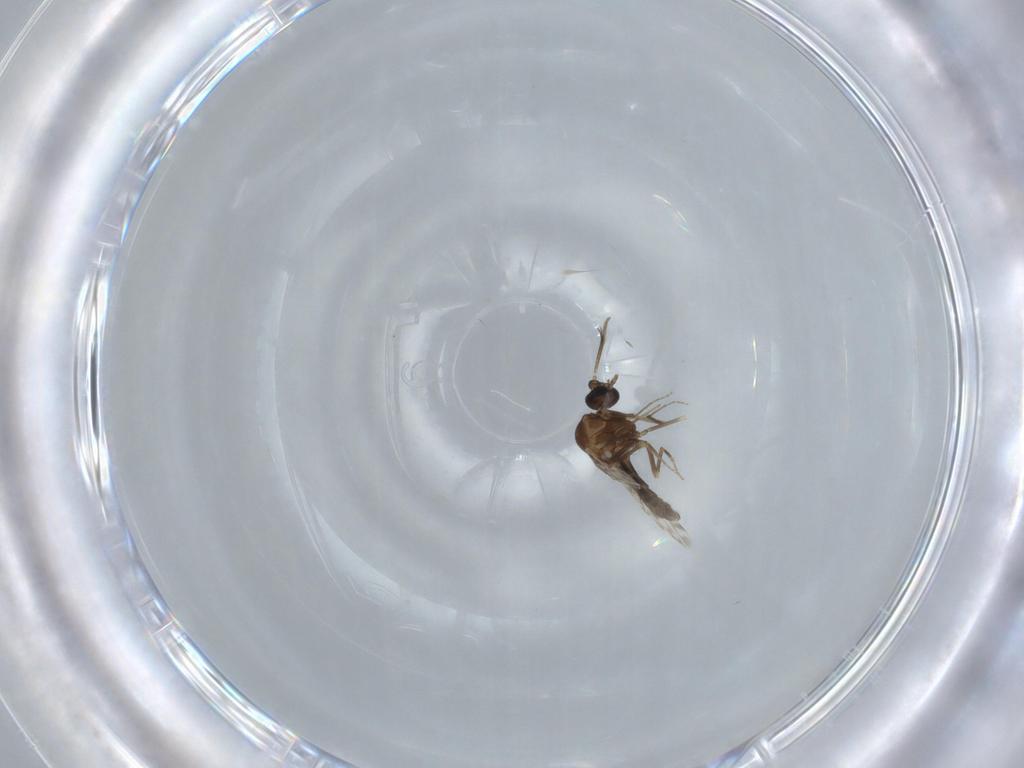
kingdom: Animalia
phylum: Arthropoda
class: Insecta
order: Diptera
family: Ceratopogonidae
